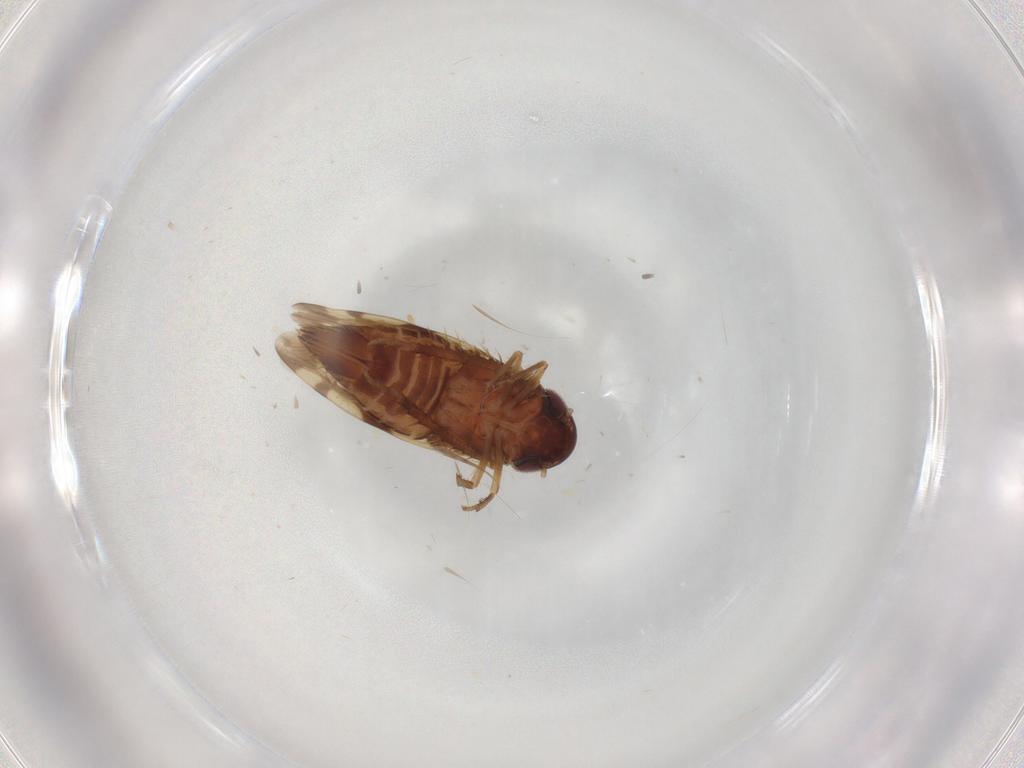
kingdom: Animalia
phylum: Arthropoda
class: Insecta
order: Hemiptera
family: Cicadellidae
